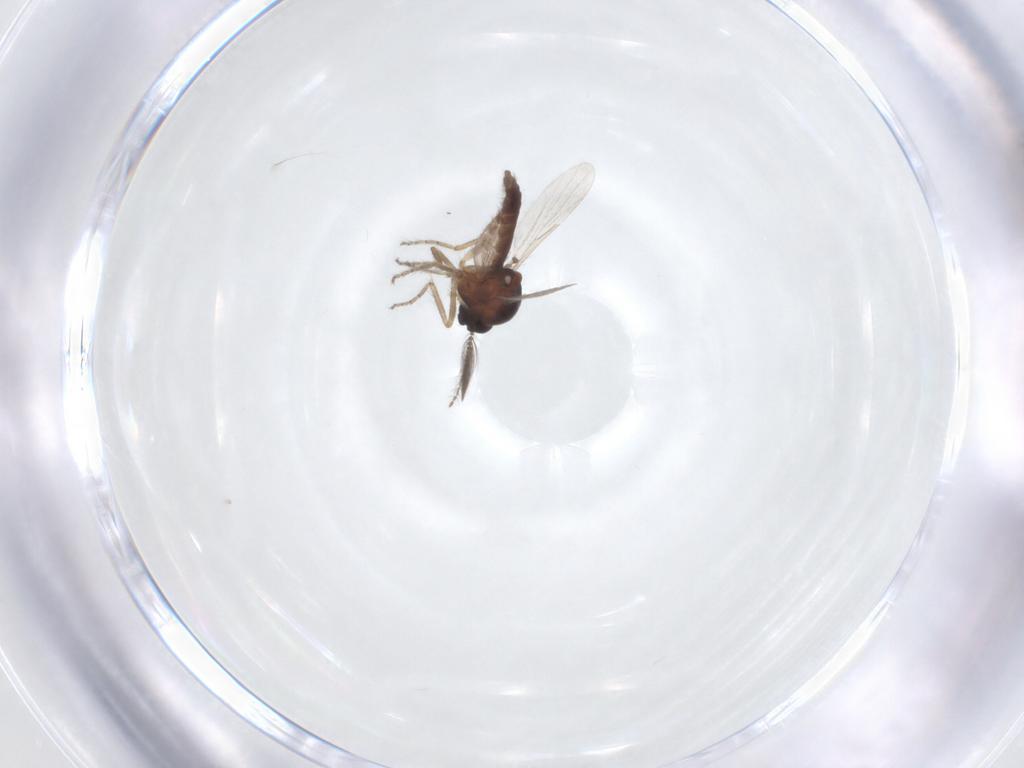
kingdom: Animalia
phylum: Arthropoda
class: Insecta
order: Diptera
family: Ceratopogonidae
